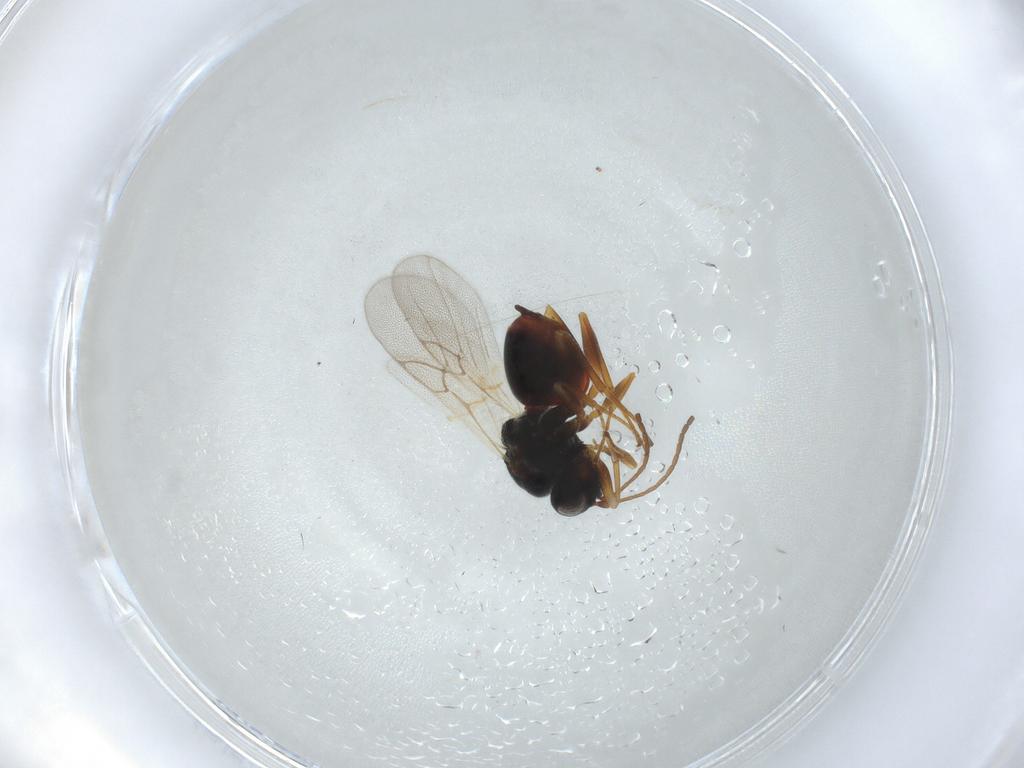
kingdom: Animalia
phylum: Arthropoda
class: Insecta
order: Hymenoptera
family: Cynipidae
